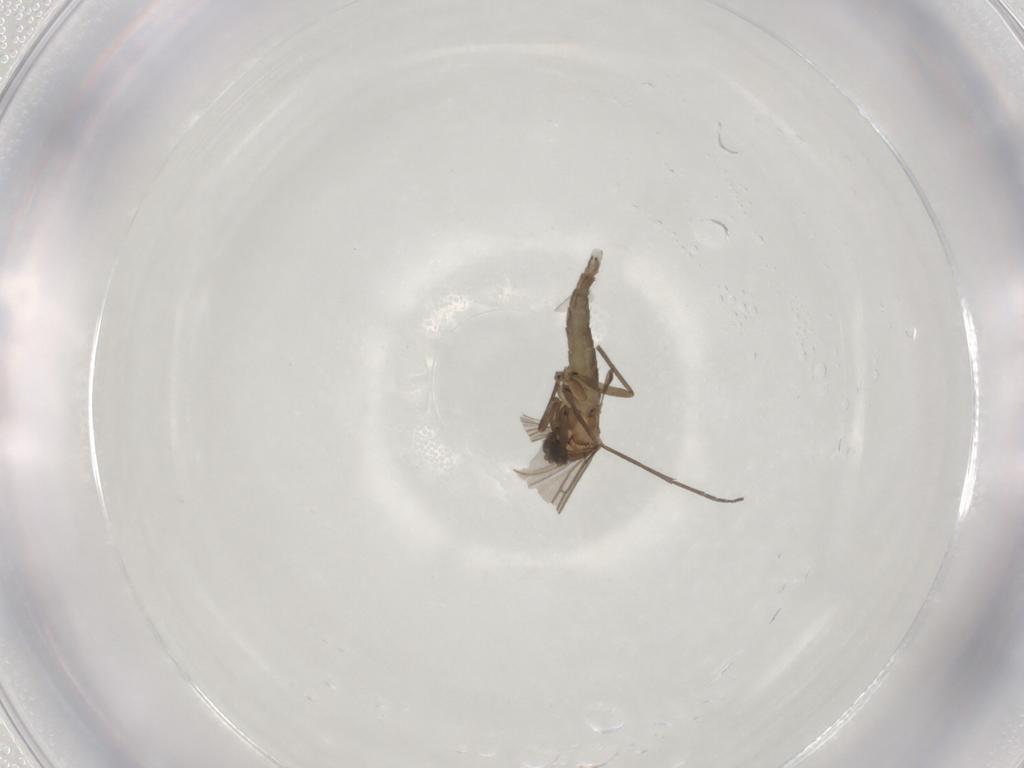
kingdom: Animalia
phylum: Arthropoda
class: Insecta
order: Diptera
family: Sciaridae
